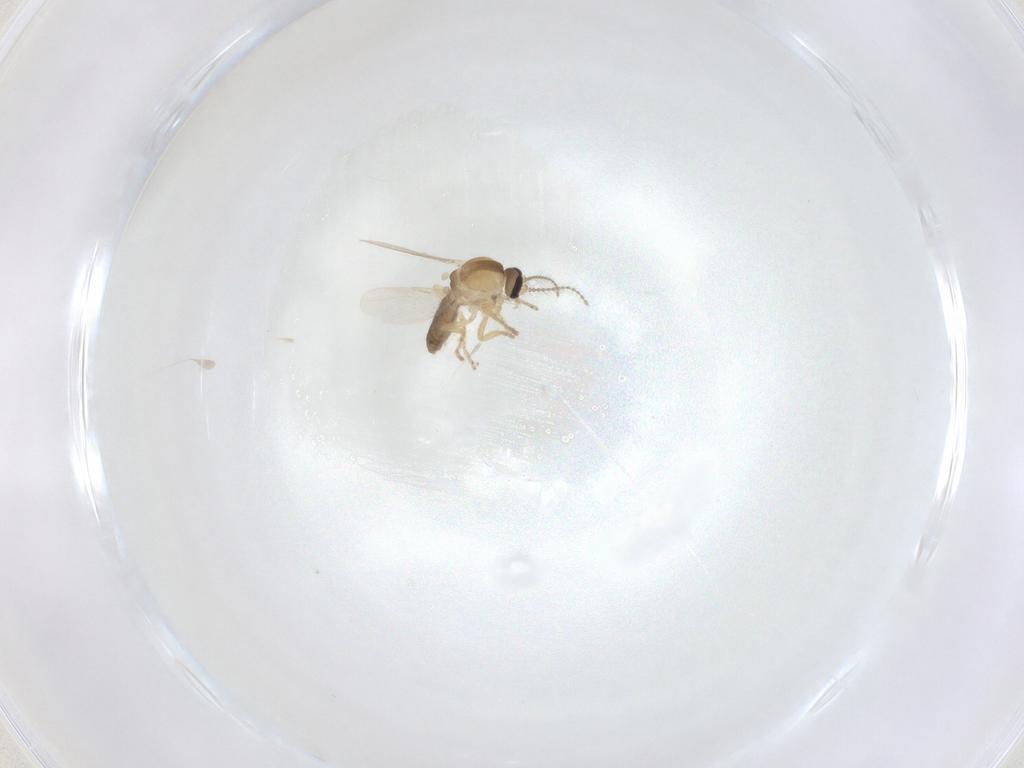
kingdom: Animalia
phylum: Arthropoda
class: Insecta
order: Diptera
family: Ceratopogonidae
